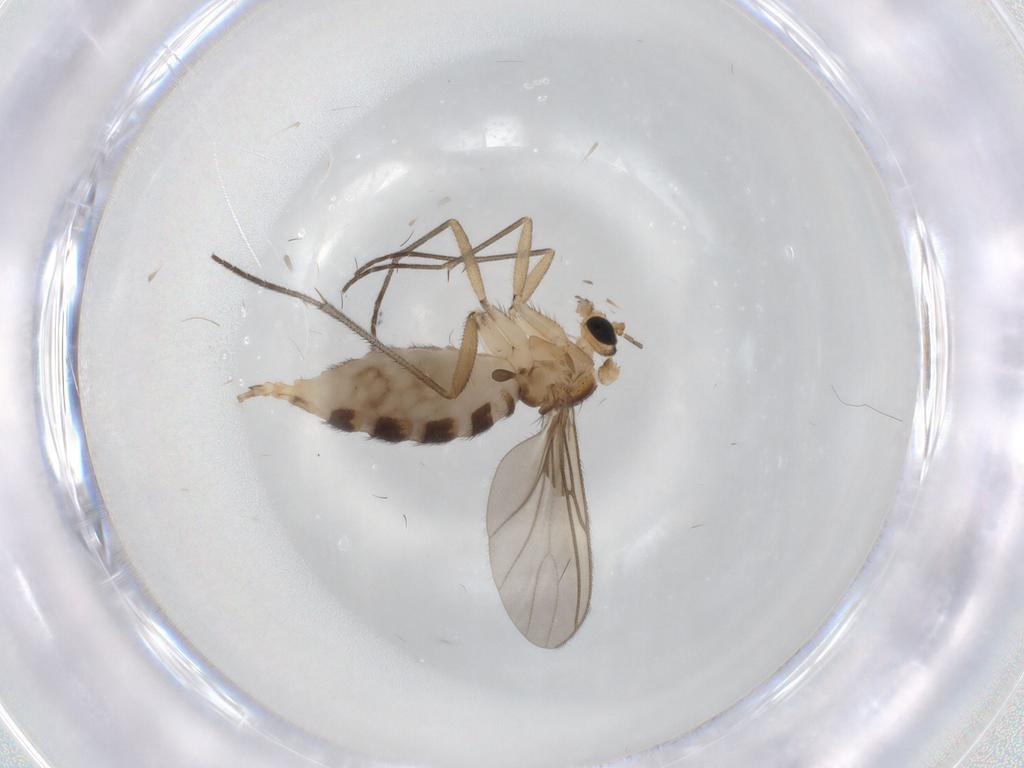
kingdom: Animalia
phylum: Arthropoda
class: Insecta
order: Diptera
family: Sciaridae
